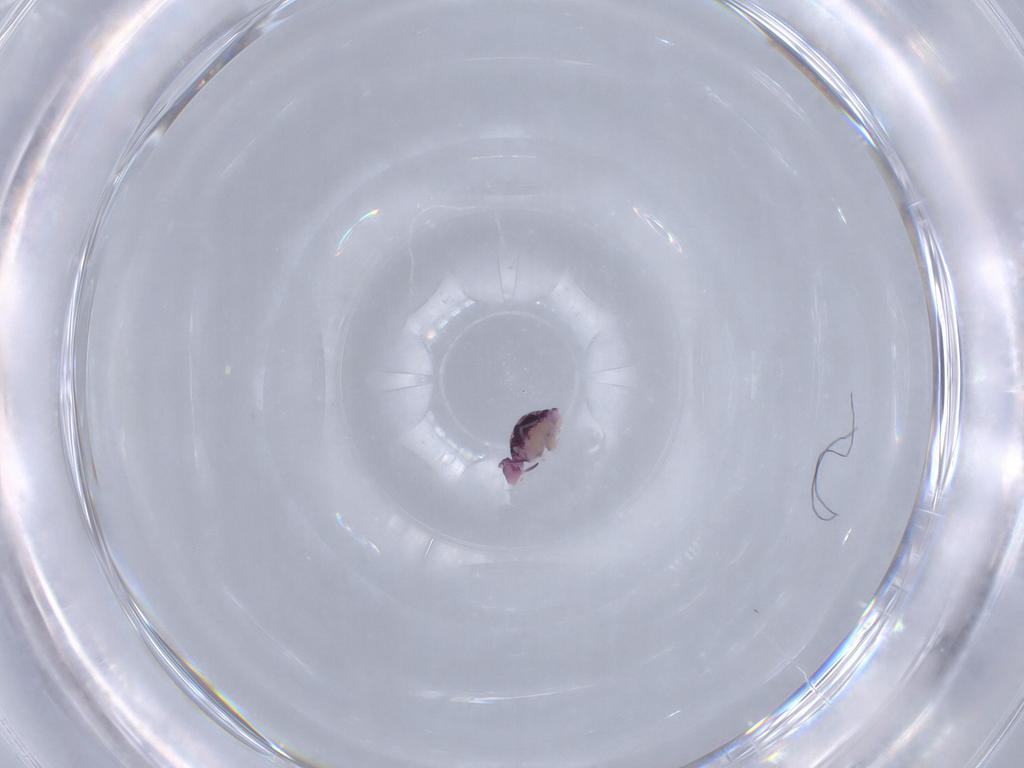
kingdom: Animalia
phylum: Arthropoda
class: Collembola
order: Symphypleona
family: Katiannidae
